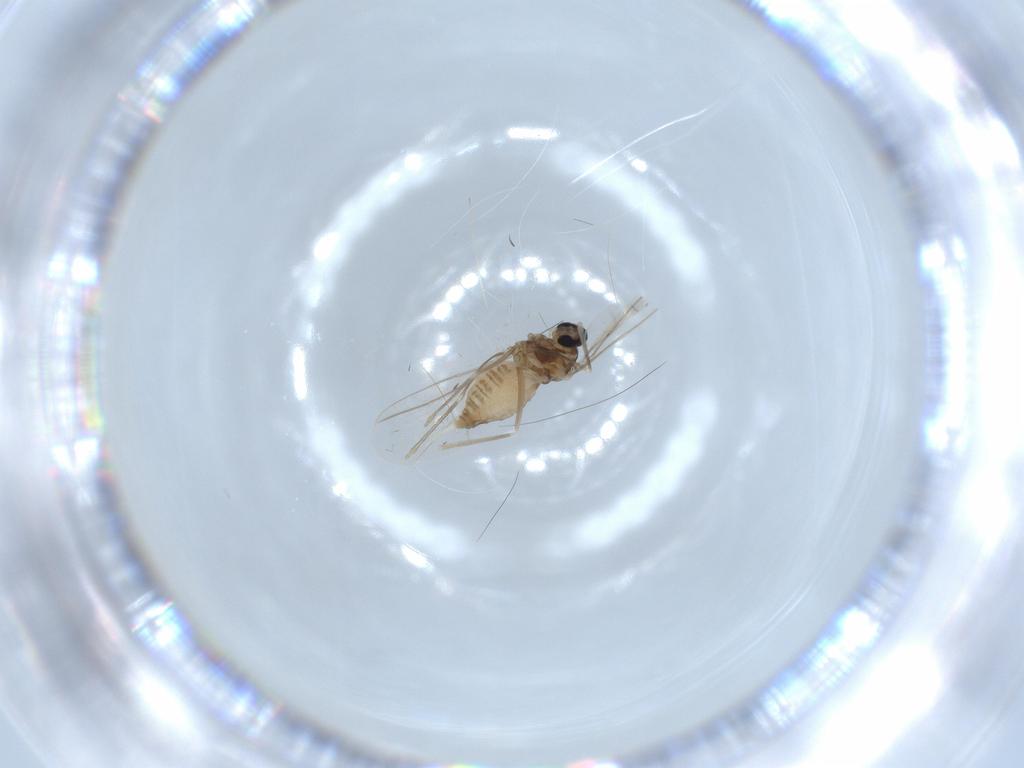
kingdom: Animalia
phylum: Arthropoda
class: Insecta
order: Diptera
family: Cecidomyiidae
